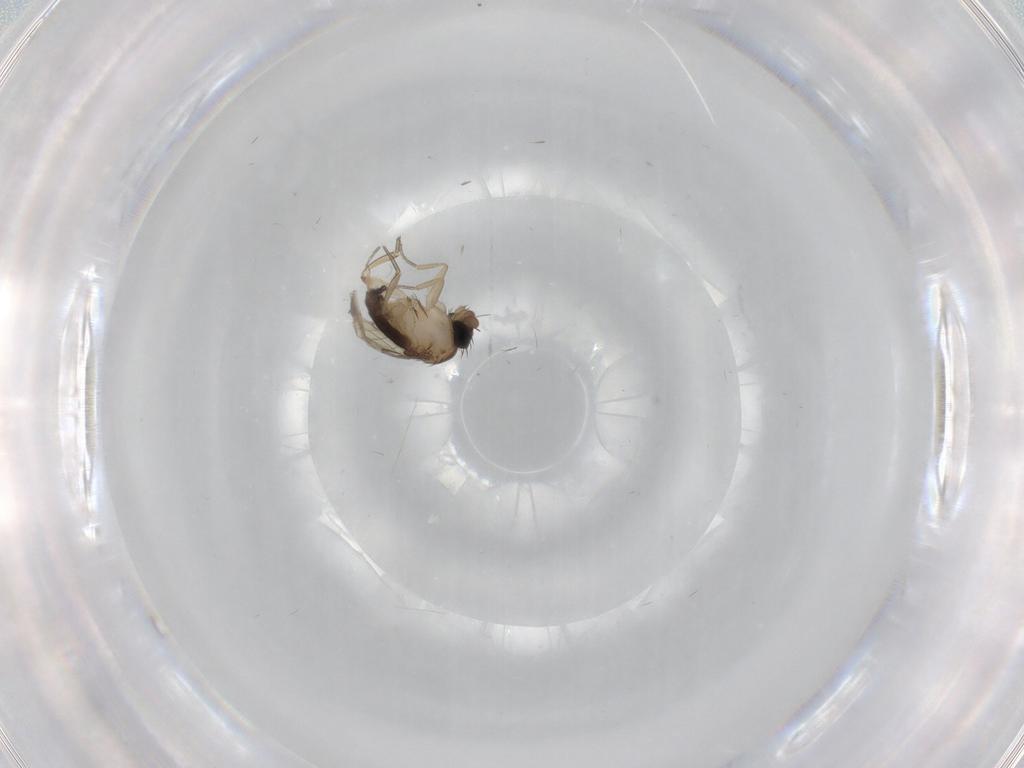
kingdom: Animalia
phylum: Arthropoda
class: Insecta
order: Diptera
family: Phoridae
